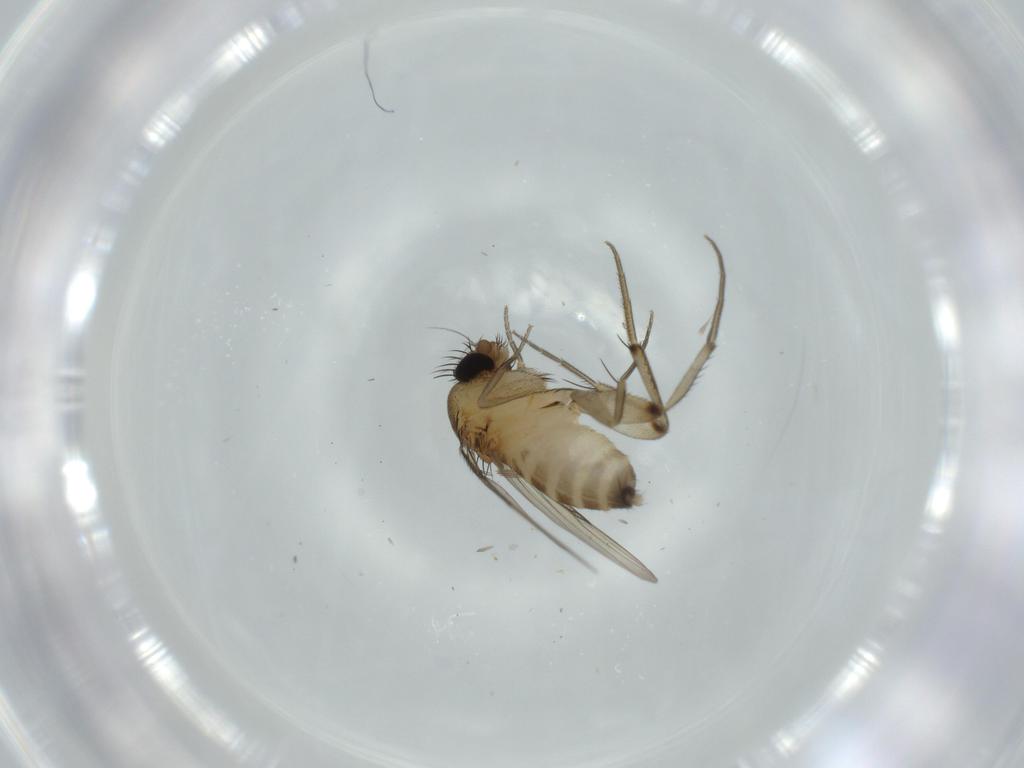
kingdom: Animalia
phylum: Arthropoda
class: Insecta
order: Diptera
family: Phoridae
